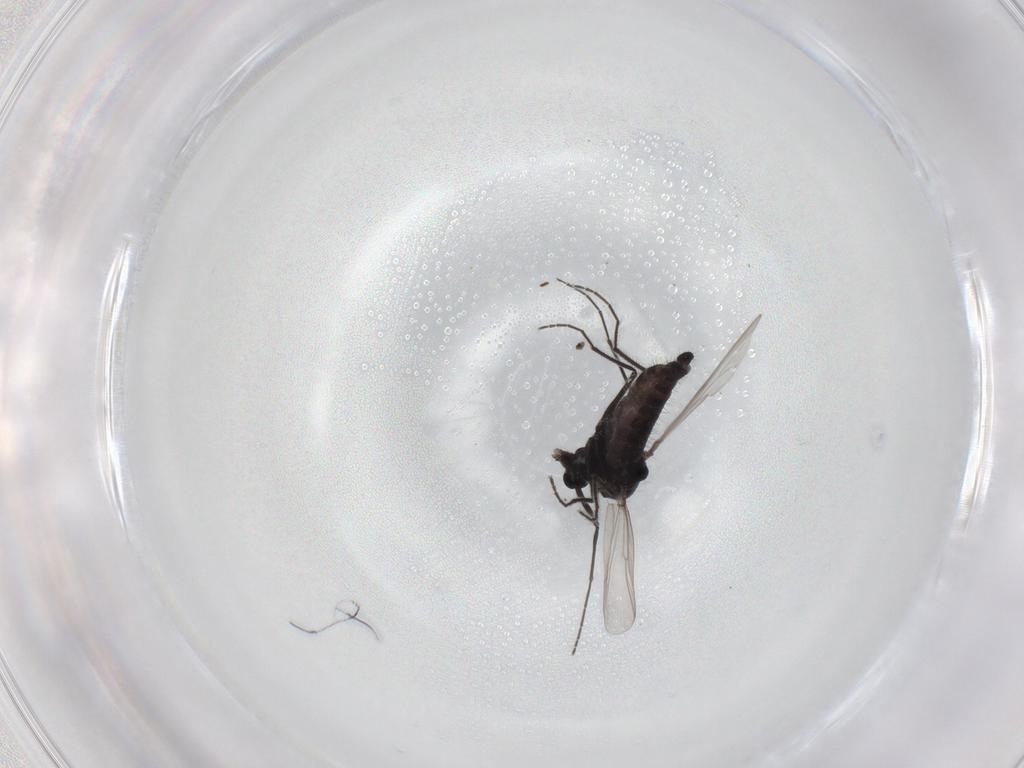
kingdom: Animalia
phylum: Arthropoda
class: Insecta
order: Diptera
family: Chironomidae
